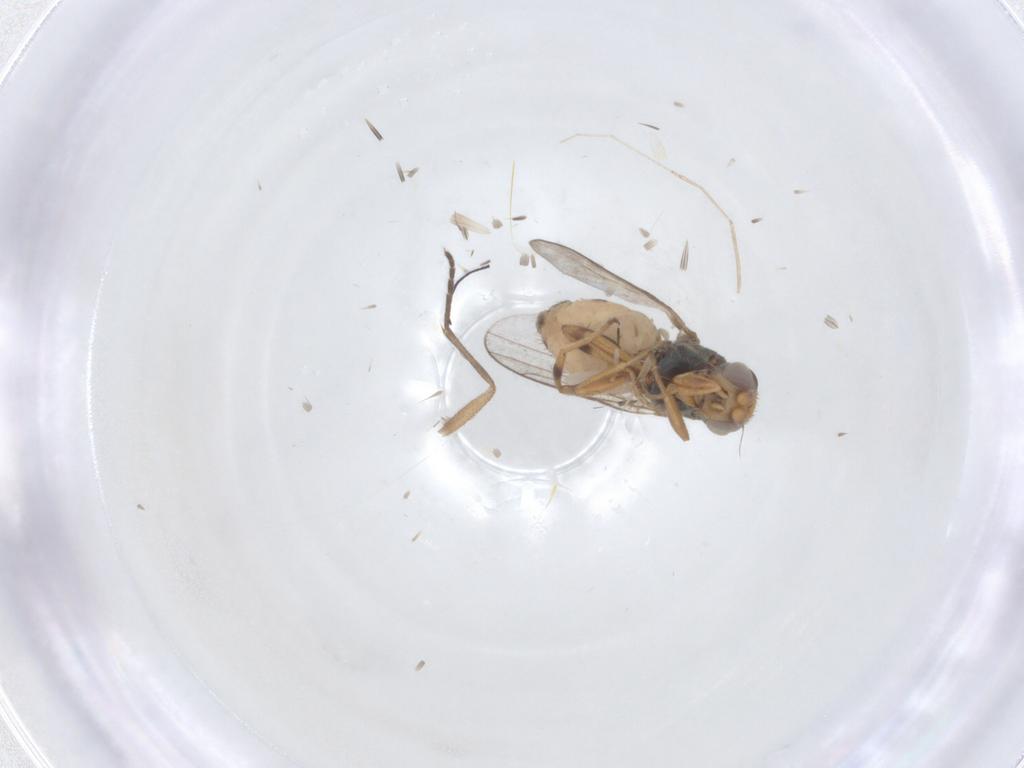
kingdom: Animalia
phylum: Arthropoda
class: Insecta
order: Diptera
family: Chloropidae
